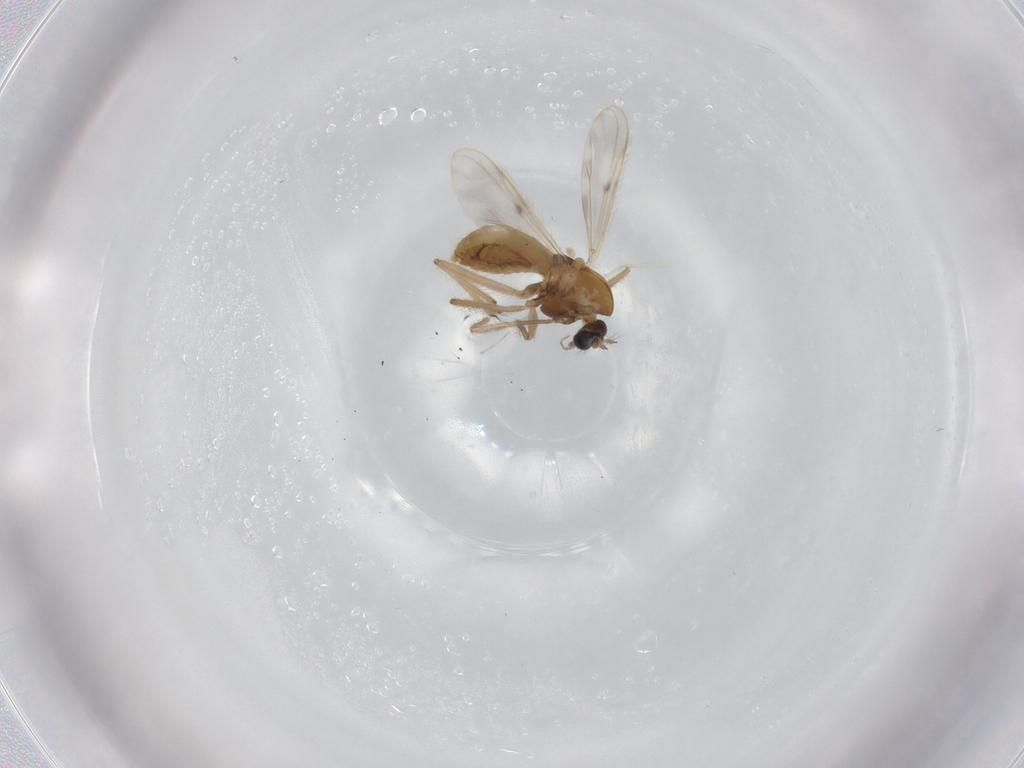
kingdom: Animalia
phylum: Arthropoda
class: Insecta
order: Diptera
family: Chironomidae
